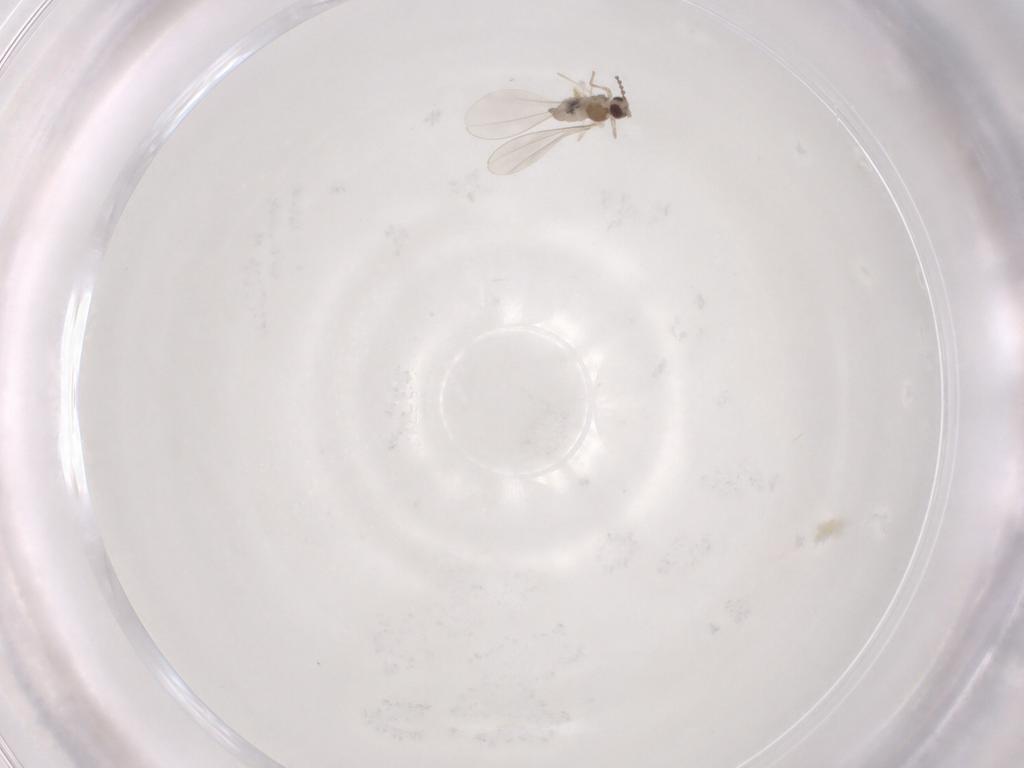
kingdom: Animalia
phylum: Arthropoda
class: Insecta
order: Diptera
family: Cecidomyiidae
